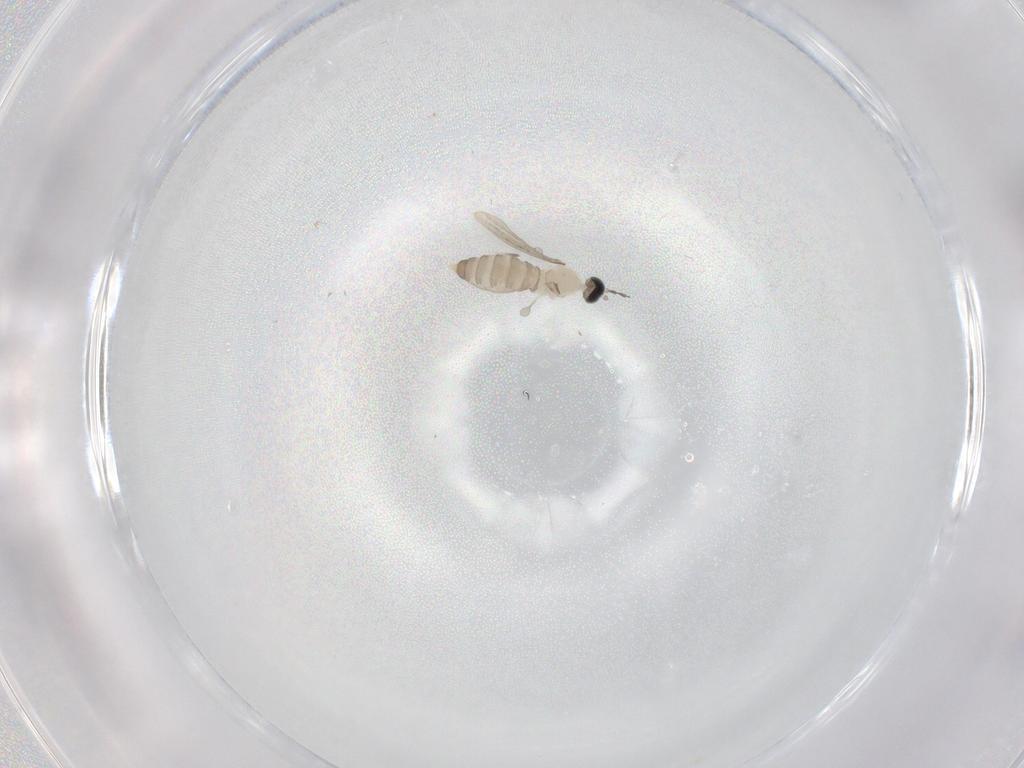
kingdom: Animalia
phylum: Arthropoda
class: Insecta
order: Diptera
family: Cecidomyiidae
